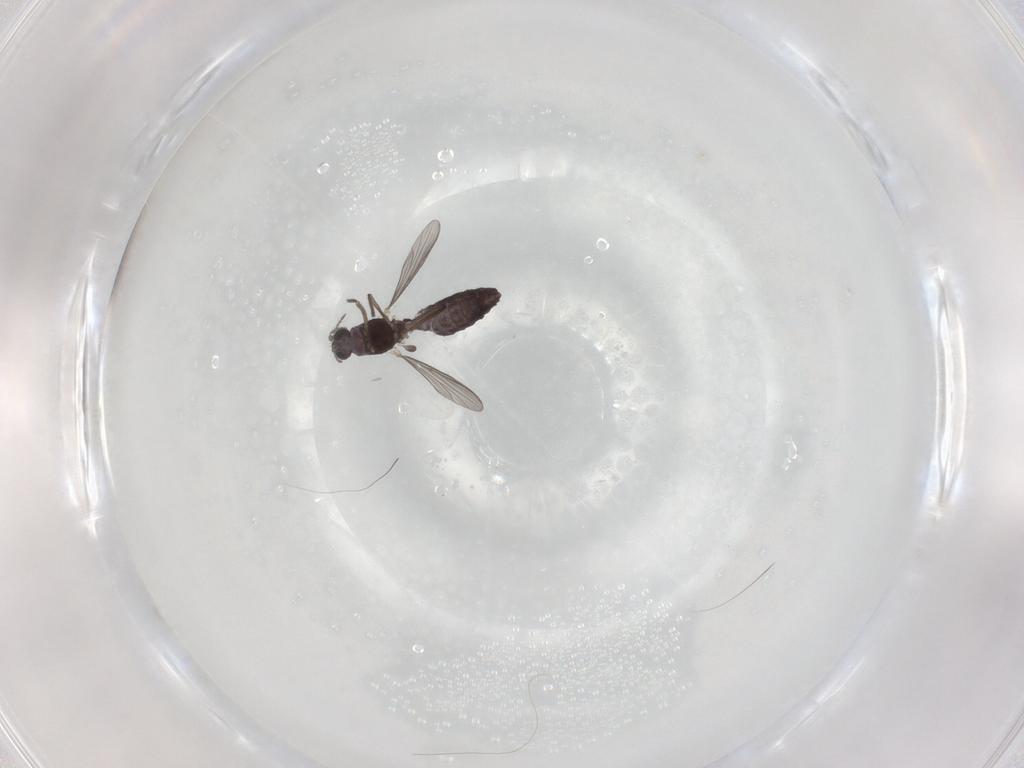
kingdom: Animalia
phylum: Arthropoda
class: Insecta
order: Diptera
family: Chironomidae
